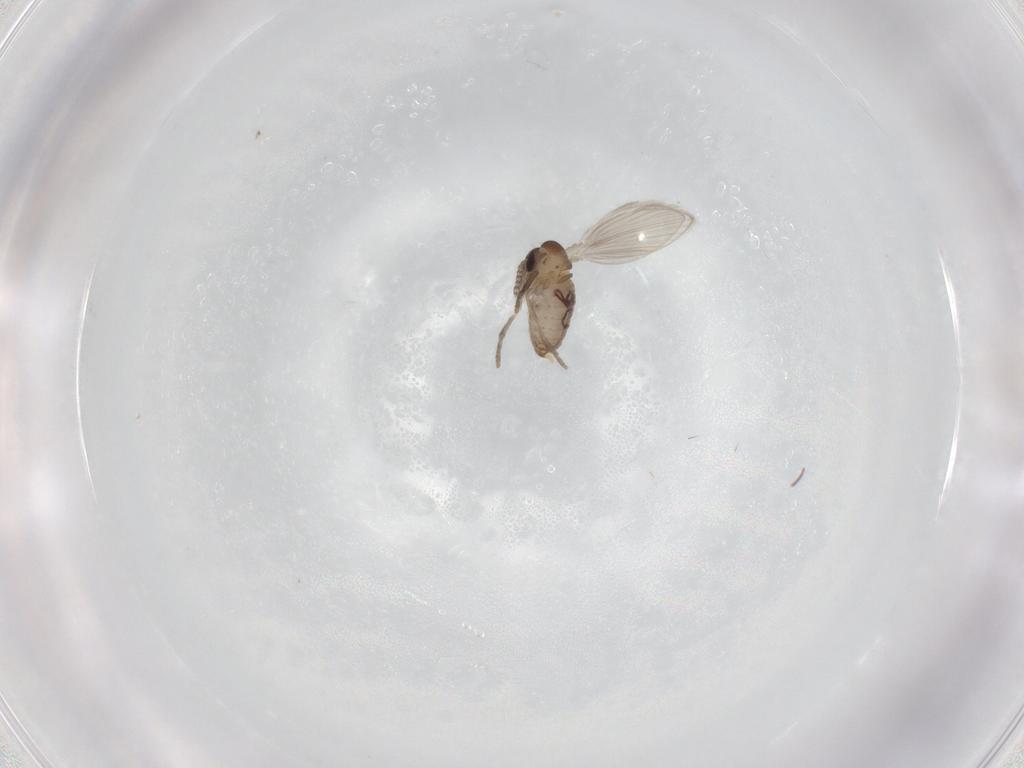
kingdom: Animalia
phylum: Arthropoda
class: Insecta
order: Diptera
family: Psychodidae
